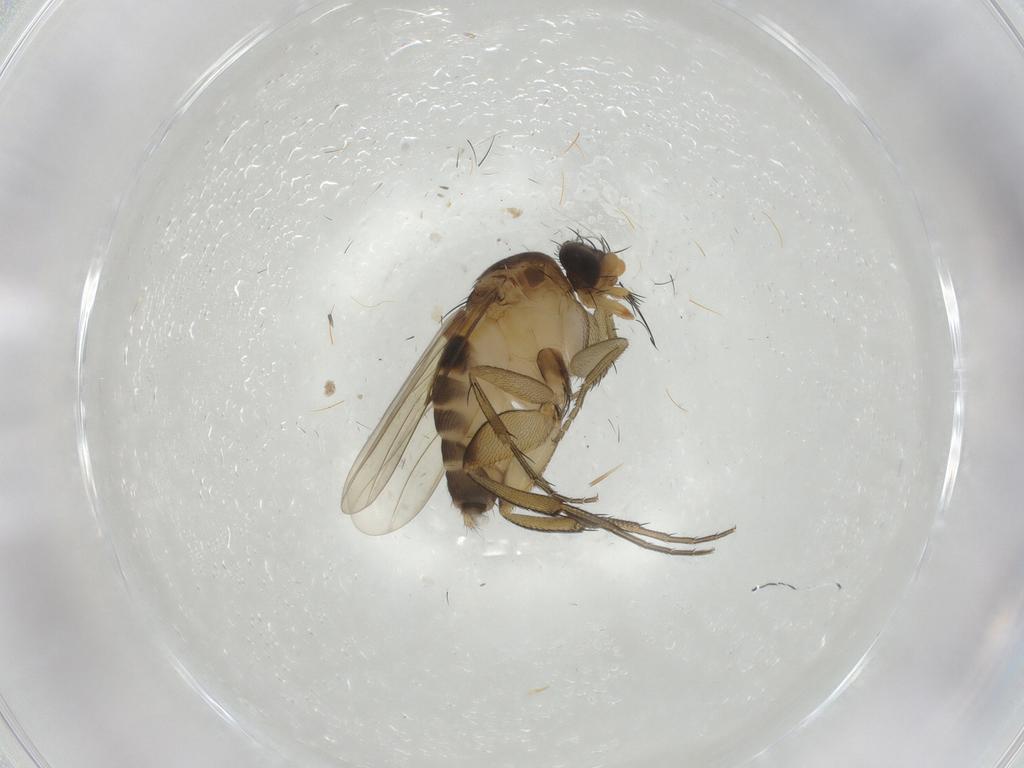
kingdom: Animalia
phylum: Arthropoda
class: Insecta
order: Diptera
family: Phoridae
